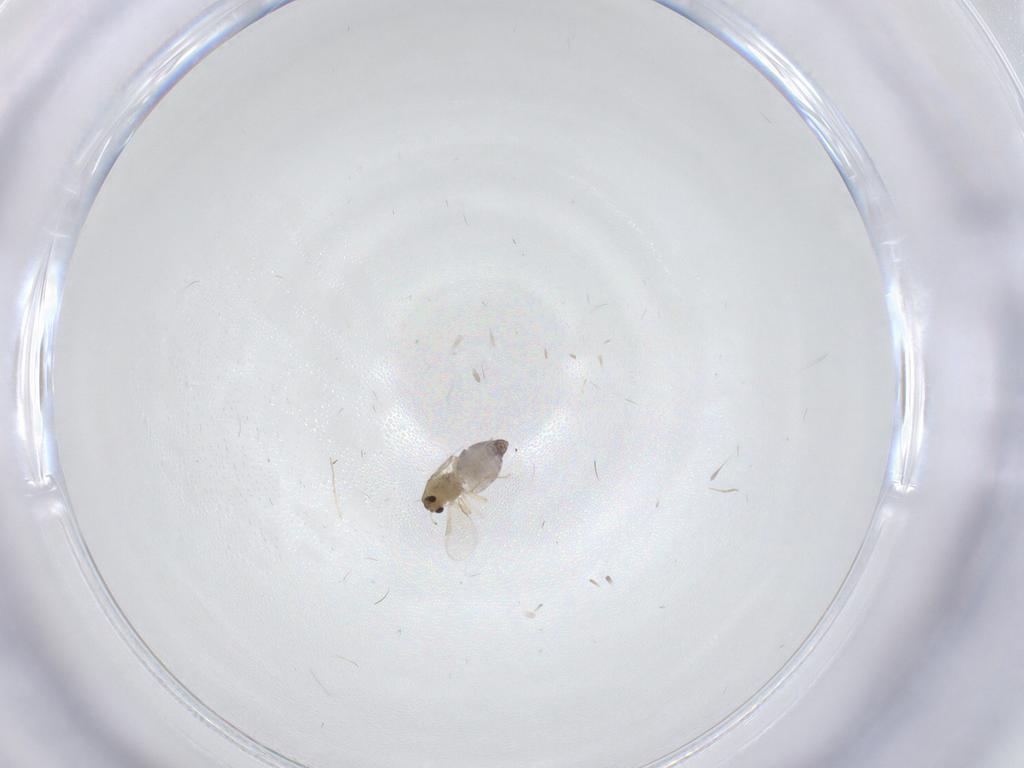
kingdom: Animalia
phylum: Arthropoda
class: Insecta
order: Diptera
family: Chironomidae
